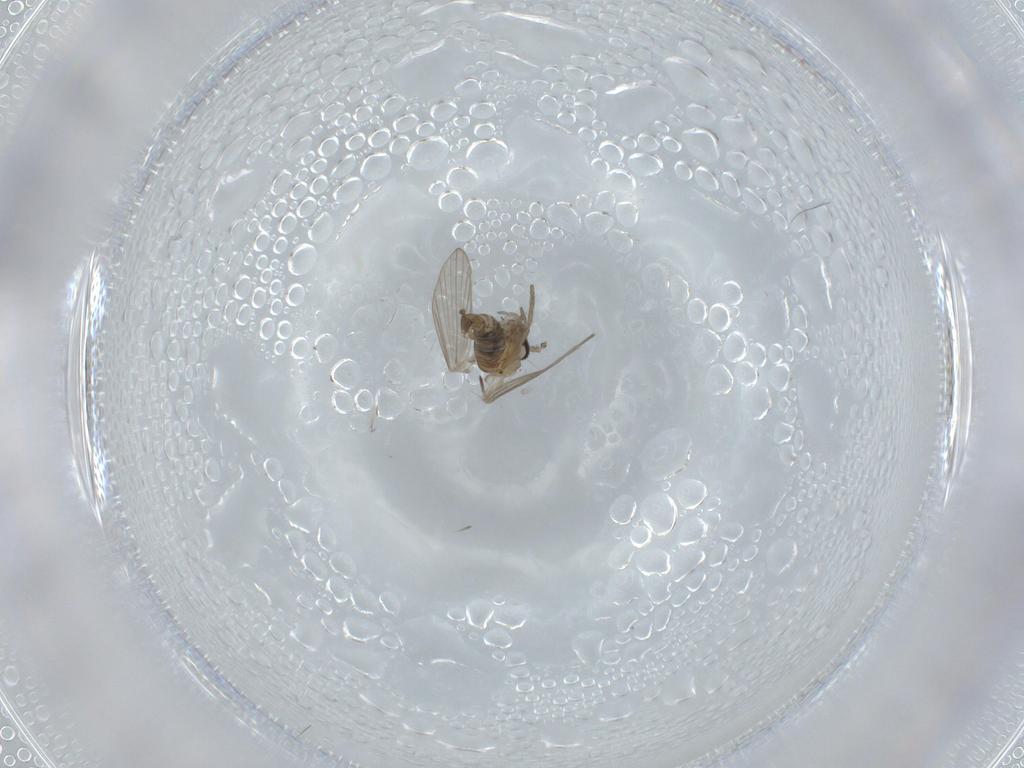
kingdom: Animalia
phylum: Arthropoda
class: Insecta
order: Diptera
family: Psychodidae
